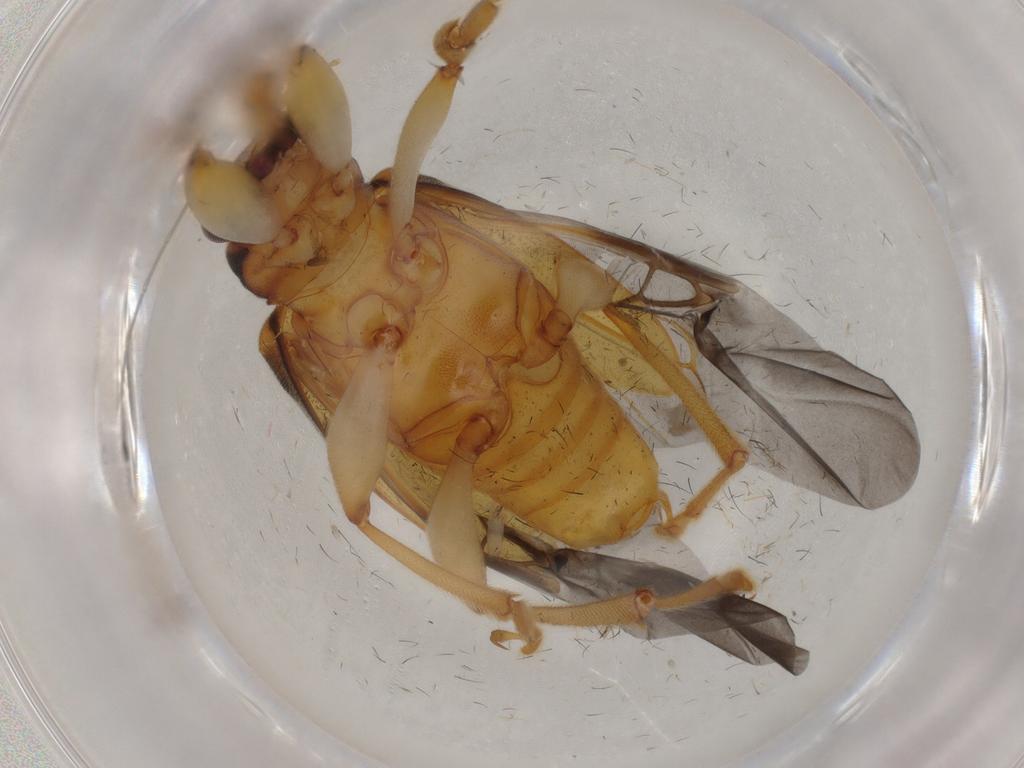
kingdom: Animalia
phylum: Arthropoda
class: Insecta
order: Coleoptera
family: Chrysomelidae
